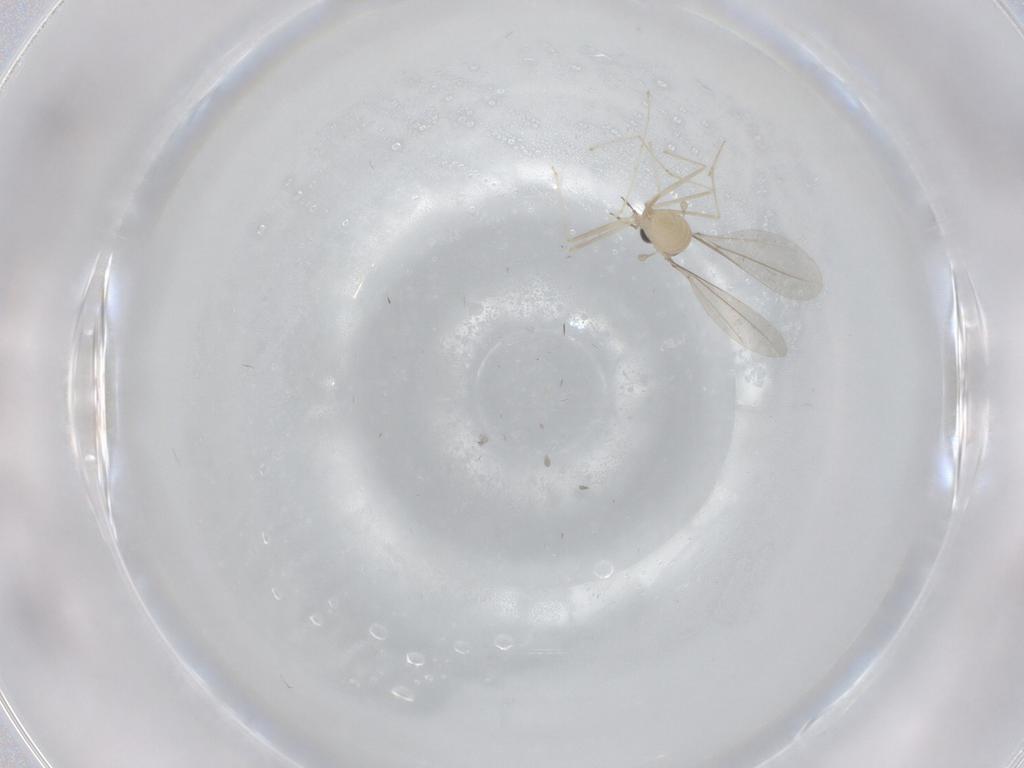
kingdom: Animalia
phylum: Arthropoda
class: Insecta
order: Diptera
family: Cecidomyiidae
